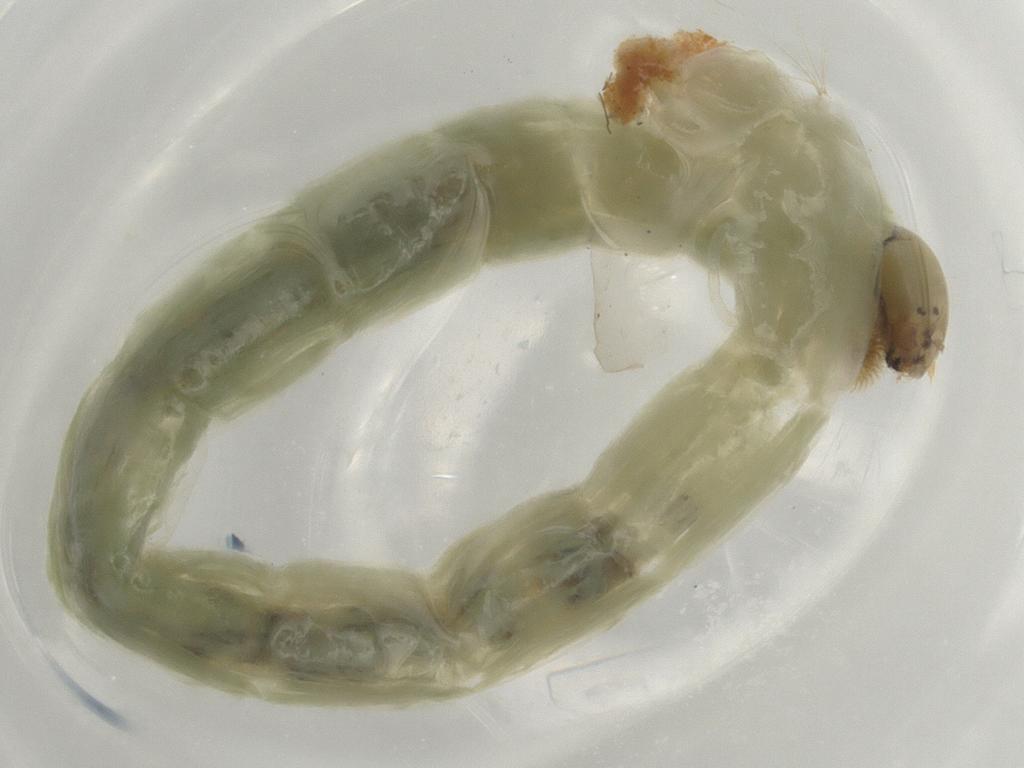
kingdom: Animalia
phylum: Arthropoda
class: Insecta
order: Diptera
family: Chironomidae
